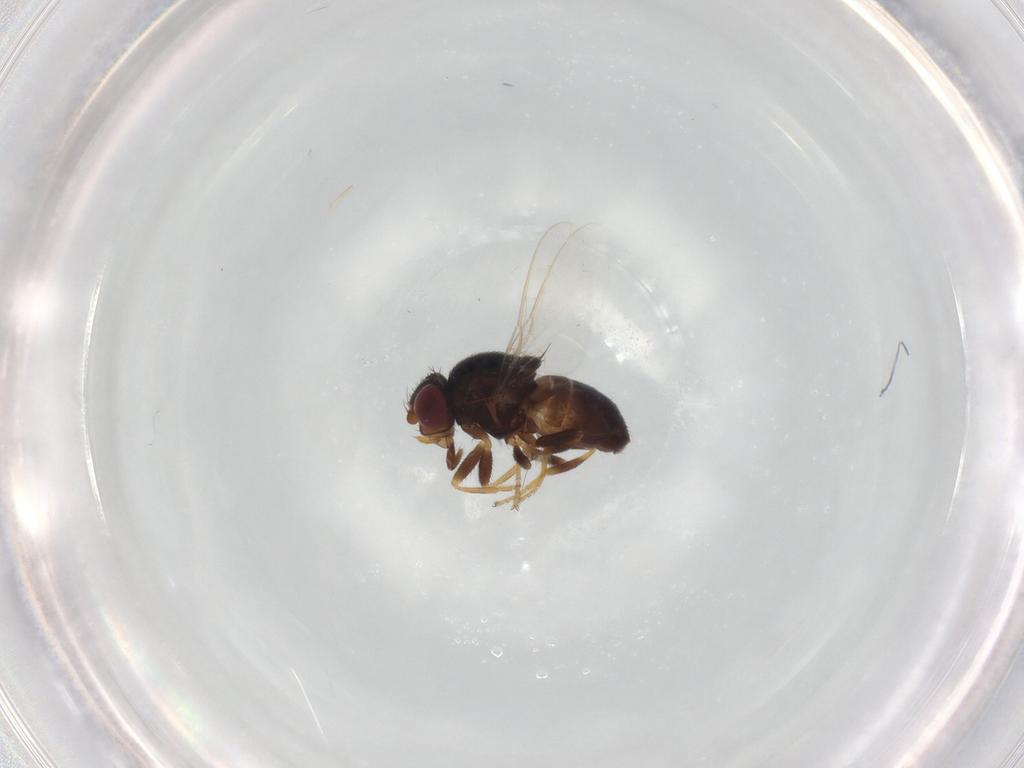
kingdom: Animalia
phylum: Arthropoda
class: Insecta
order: Diptera
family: Chloropidae
